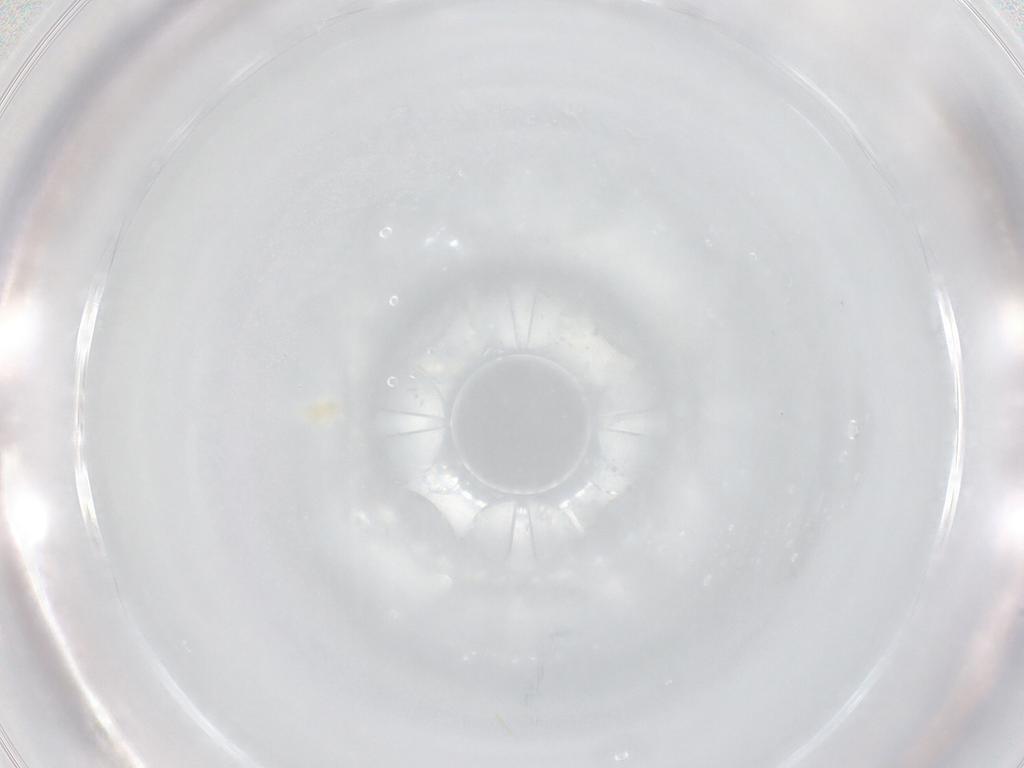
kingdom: Animalia
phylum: Arthropoda
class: Arachnida
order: Trombidiformes
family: Eupodidae
